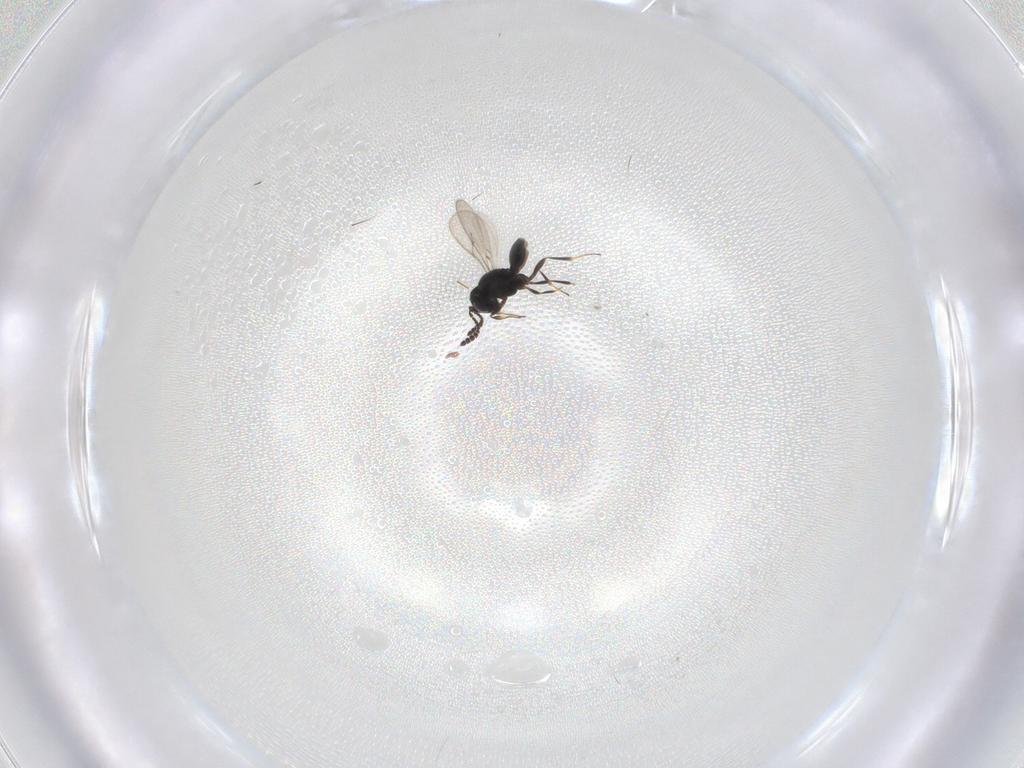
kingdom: Animalia
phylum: Arthropoda
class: Insecta
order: Hymenoptera
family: Scelionidae
